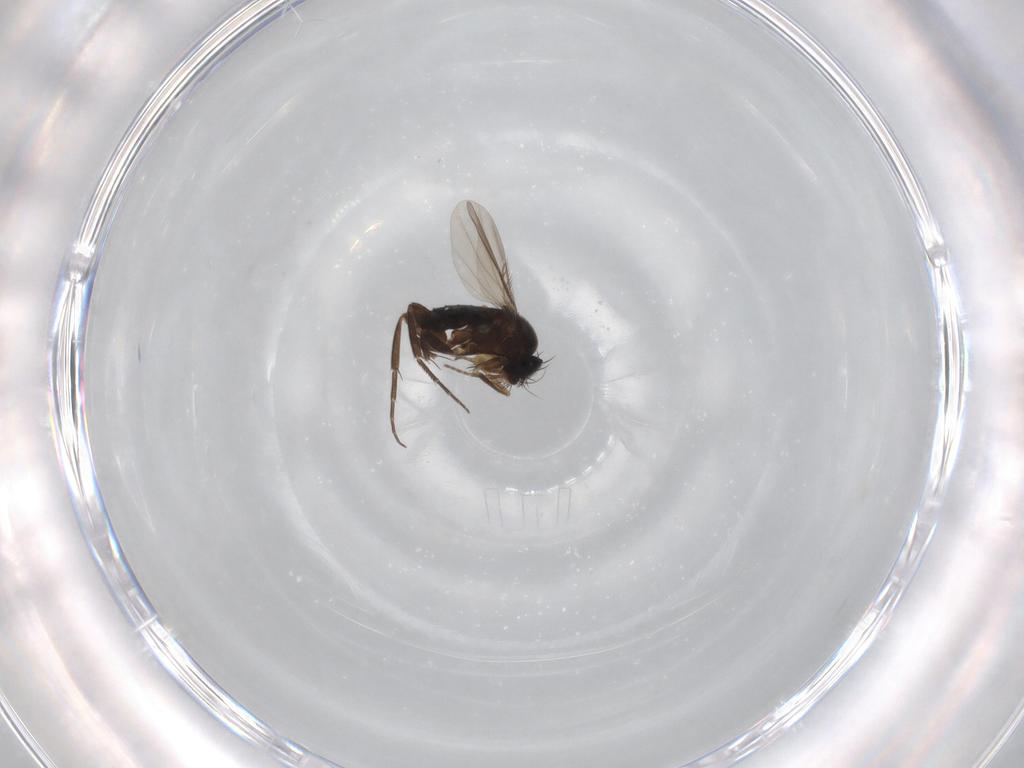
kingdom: Animalia
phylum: Arthropoda
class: Insecta
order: Diptera
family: Phoridae
